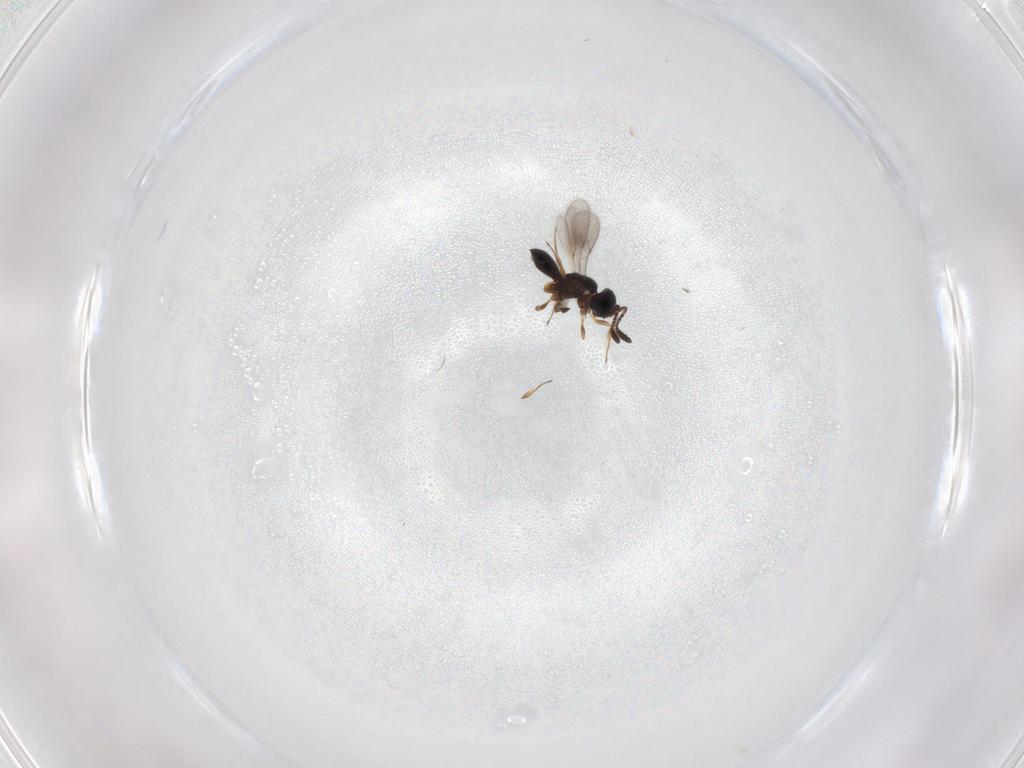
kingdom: Animalia
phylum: Arthropoda
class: Insecta
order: Hymenoptera
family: Scelionidae
